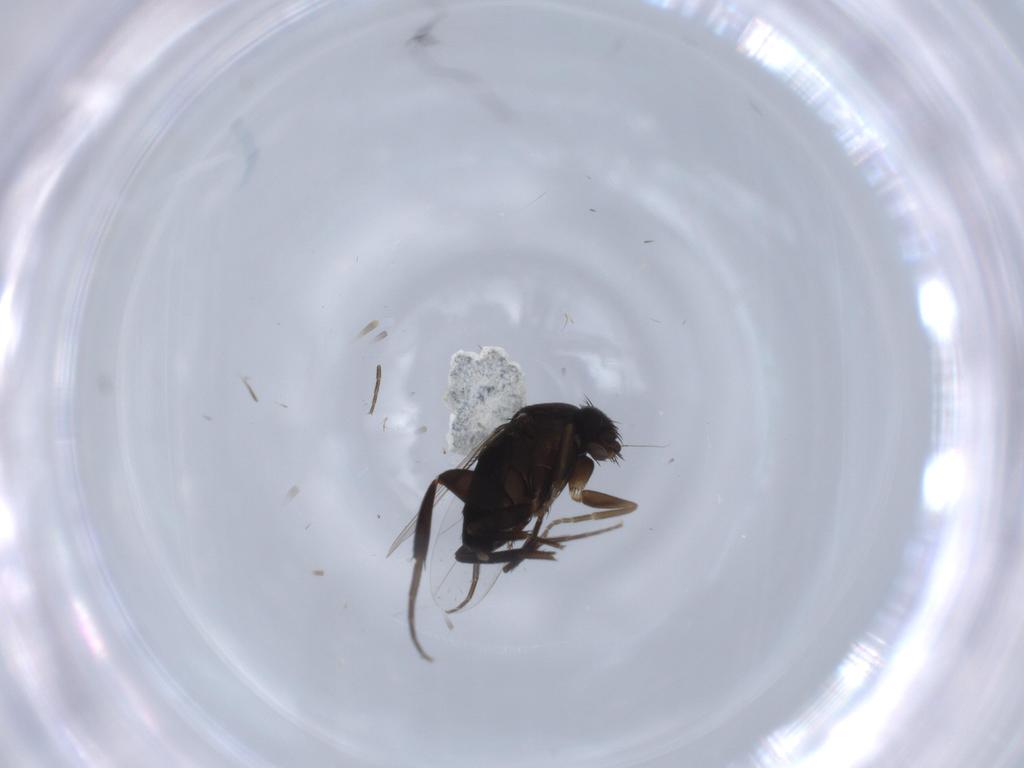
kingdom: Animalia
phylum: Arthropoda
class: Insecta
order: Diptera
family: Phoridae
